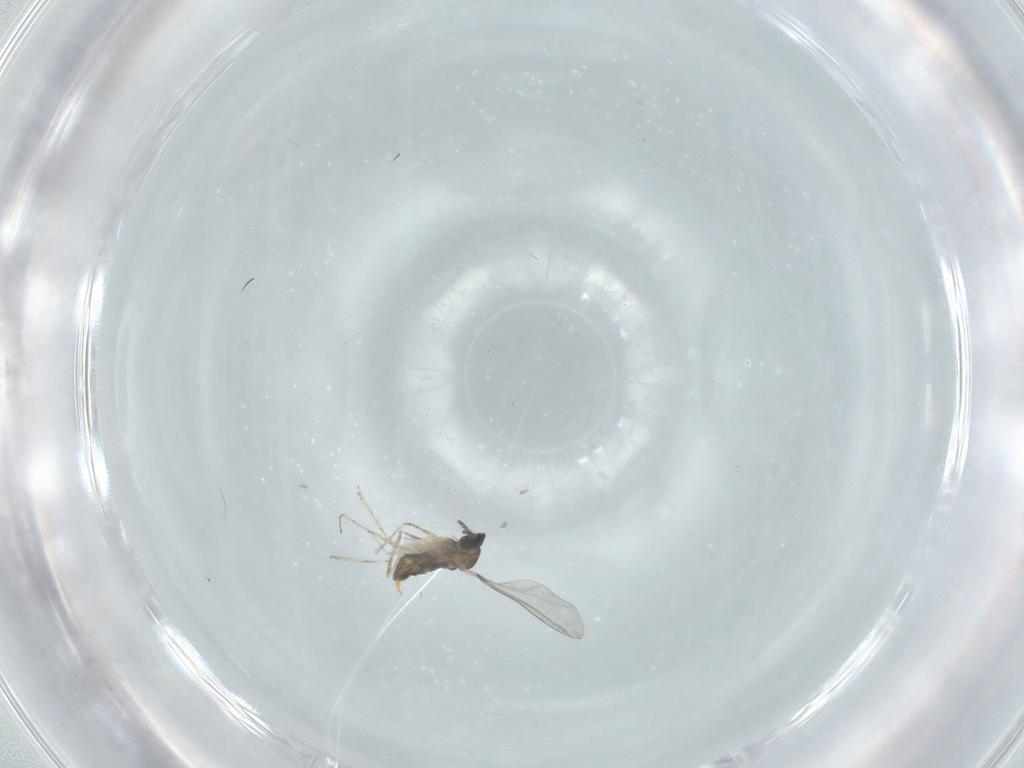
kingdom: Animalia
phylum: Arthropoda
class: Insecta
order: Diptera
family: Cecidomyiidae
